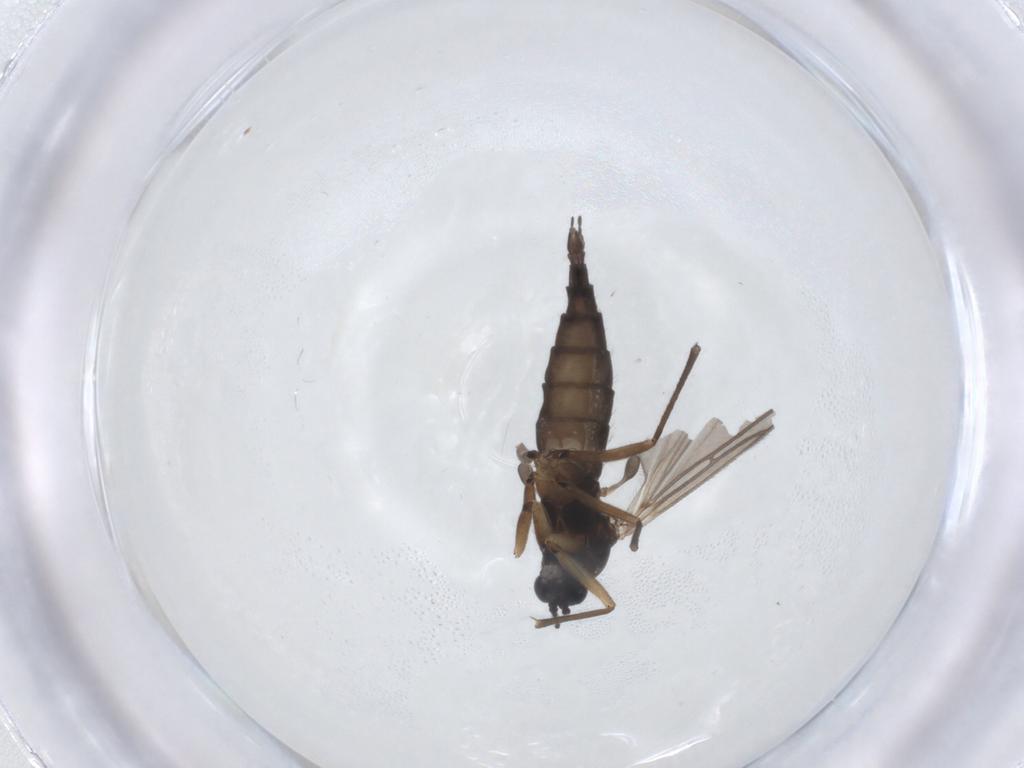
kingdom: Animalia
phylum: Arthropoda
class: Insecta
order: Diptera
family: Sciaridae
